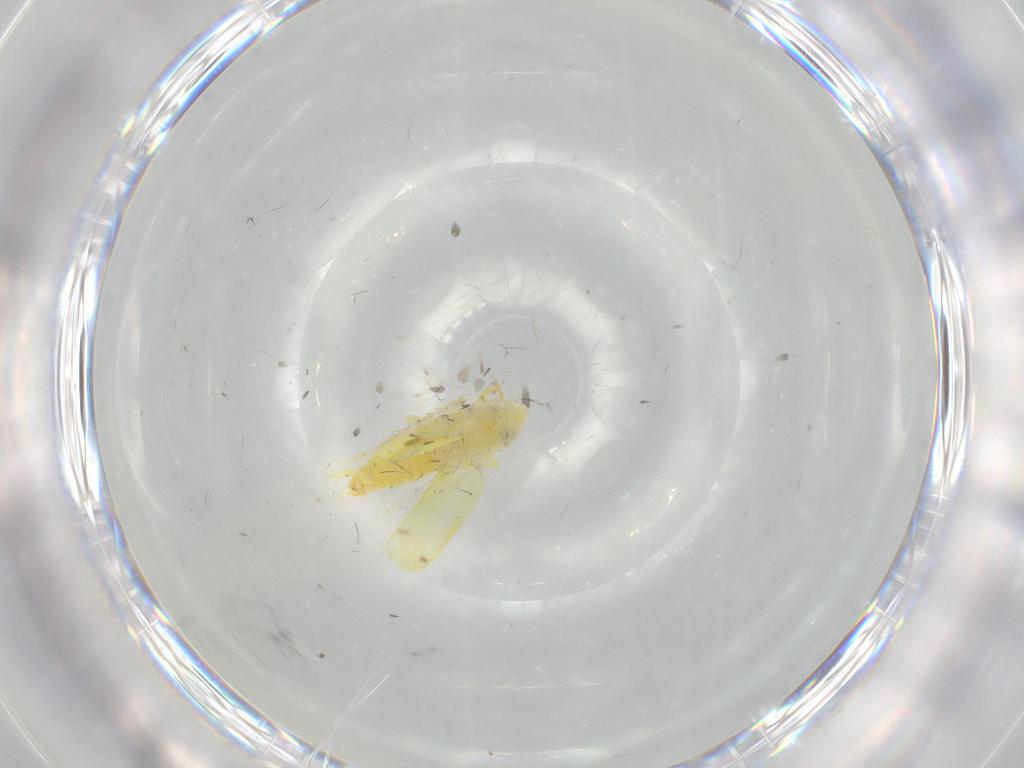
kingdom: Animalia
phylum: Arthropoda
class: Insecta
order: Hemiptera
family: Cicadellidae
